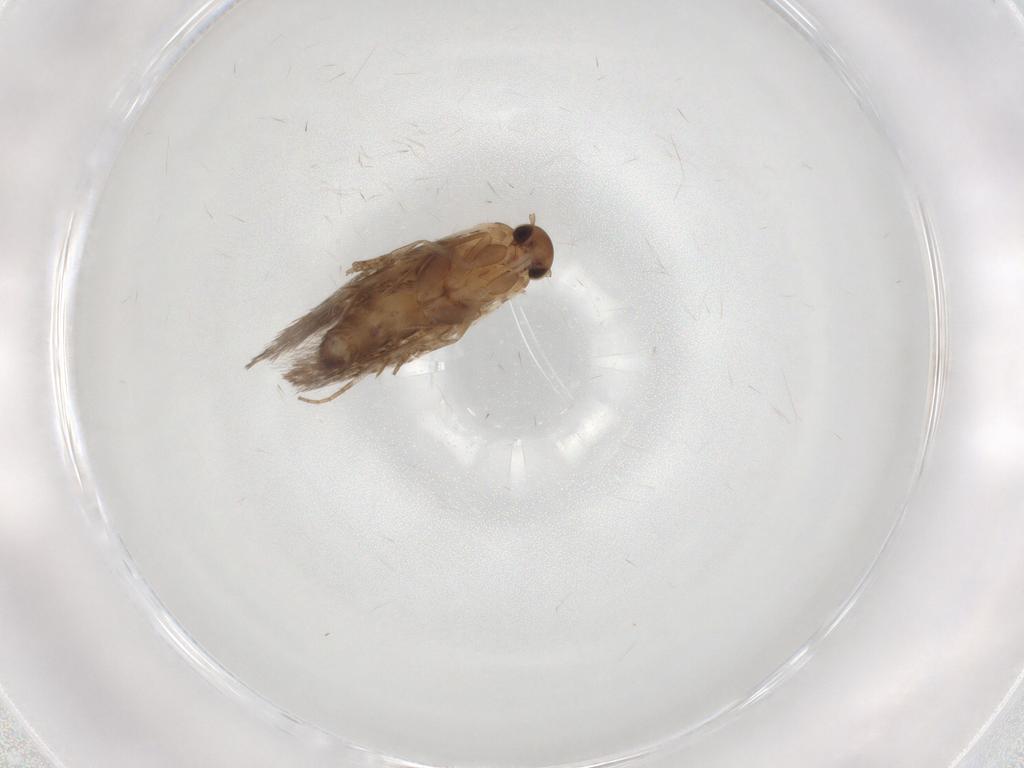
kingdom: Animalia
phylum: Arthropoda
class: Insecta
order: Lepidoptera
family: Elachistidae
